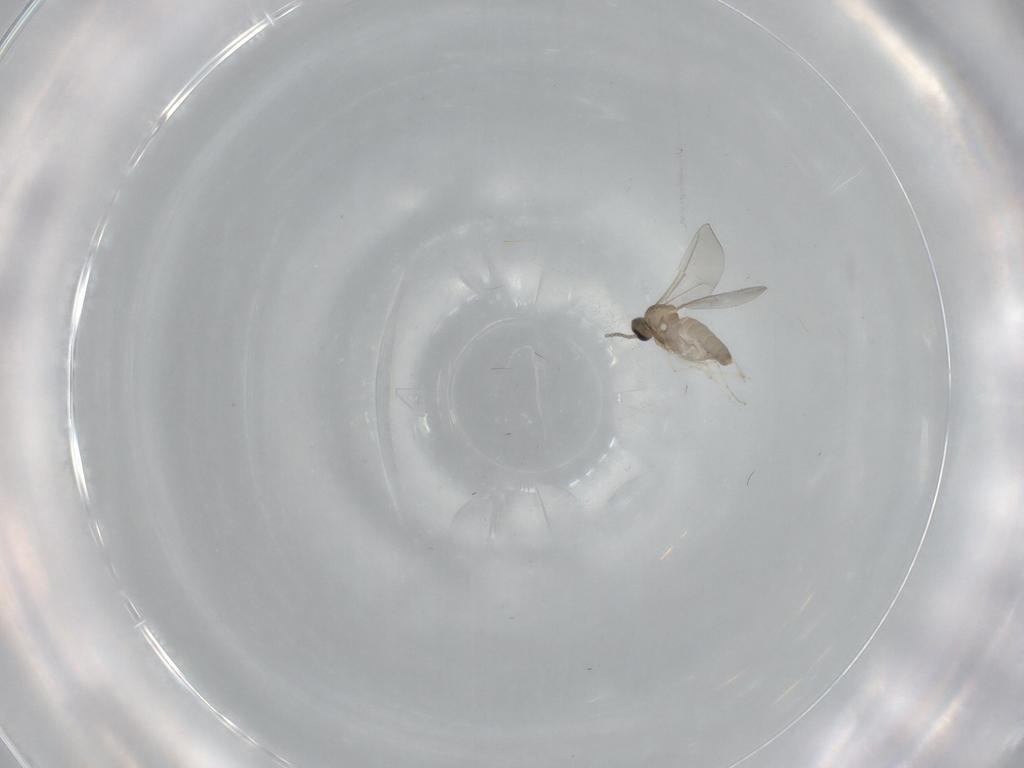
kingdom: Animalia
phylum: Arthropoda
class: Insecta
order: Diptera
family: Cecidomyiidae
